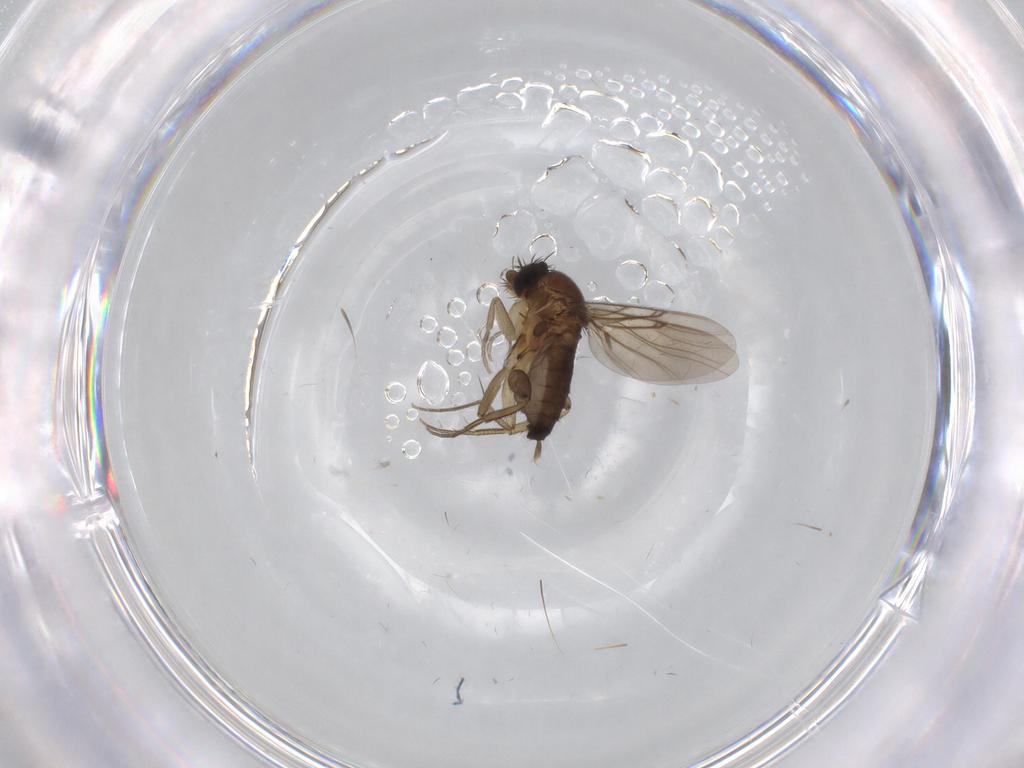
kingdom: Animalia
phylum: Arthropoda
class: Insecta
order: Diptera
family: Phoridae
